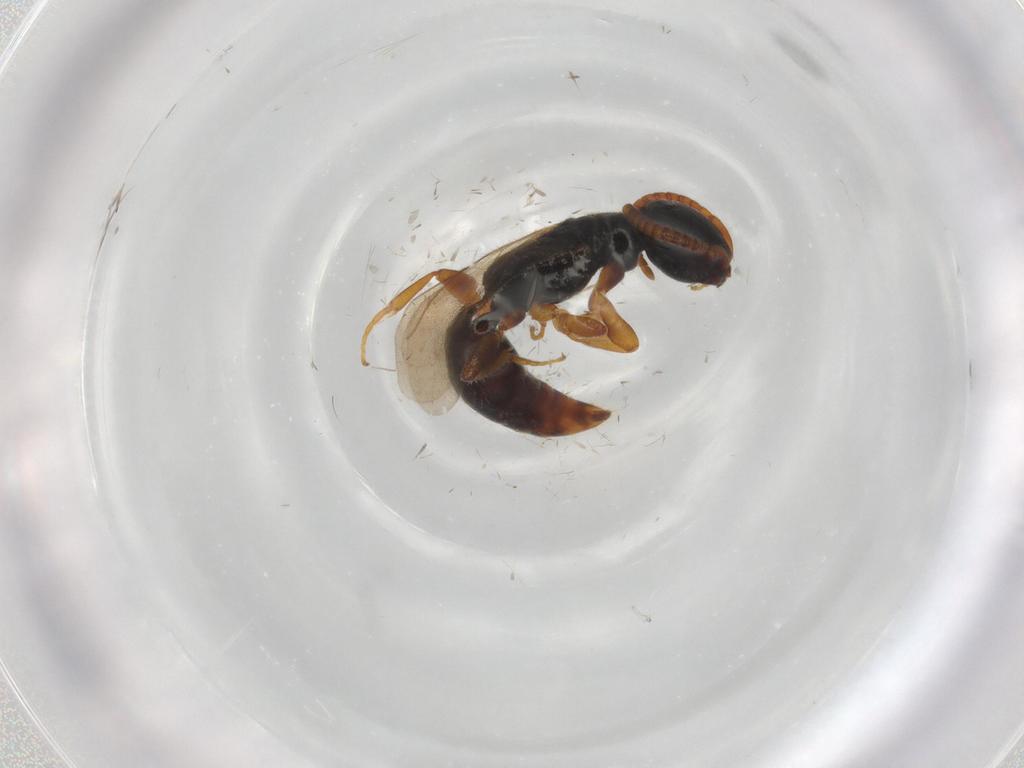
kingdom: Animalia
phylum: Arthropoda
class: Insecta
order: Hymenoptera
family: Bethylidae
